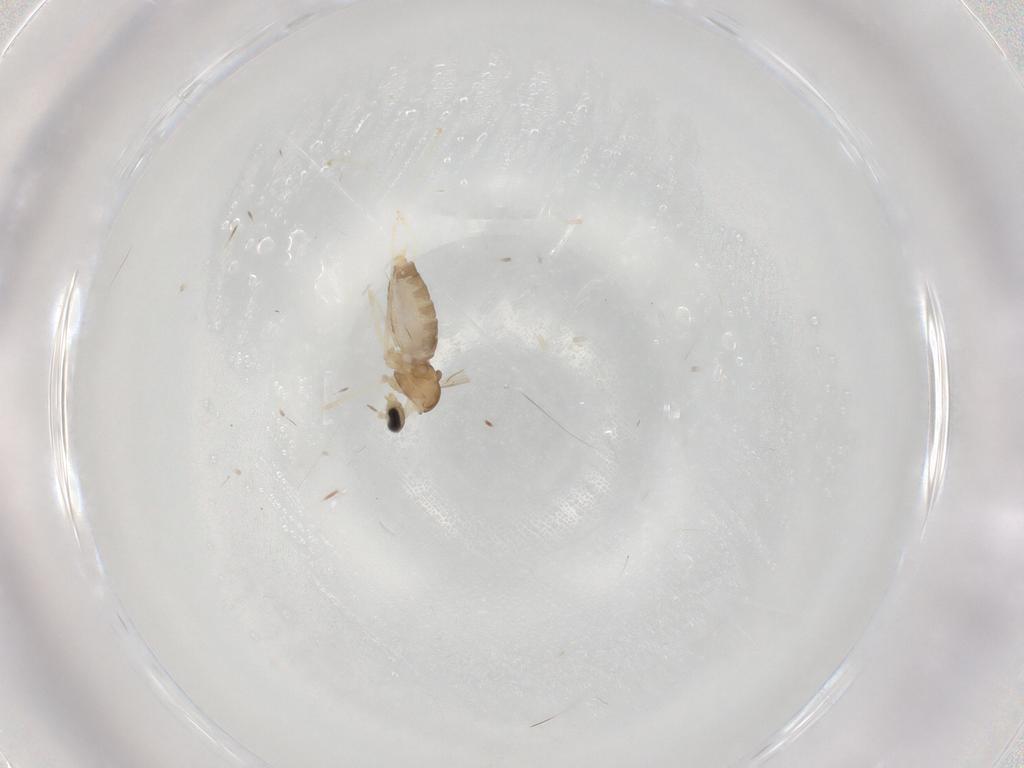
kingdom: Animalia
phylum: Arthropoda
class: Insecta
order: Diptera
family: Cecidomyiidae
